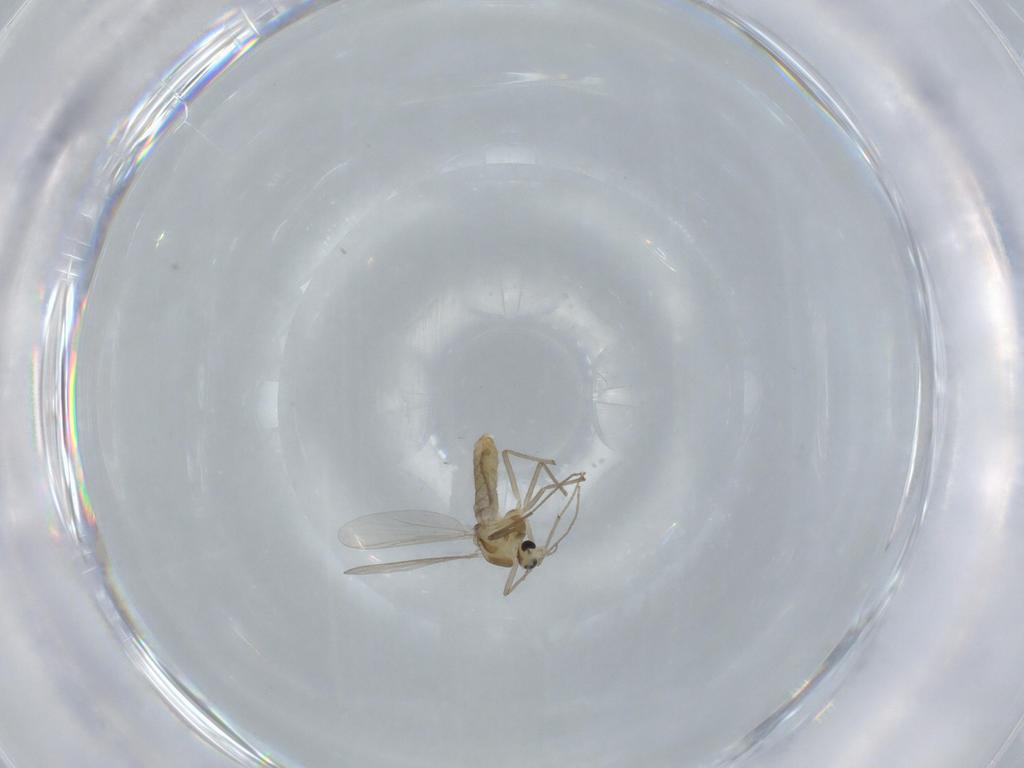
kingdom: Animalia
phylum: Arthropoda
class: Insecta
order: Diptera
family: Chironomidae
